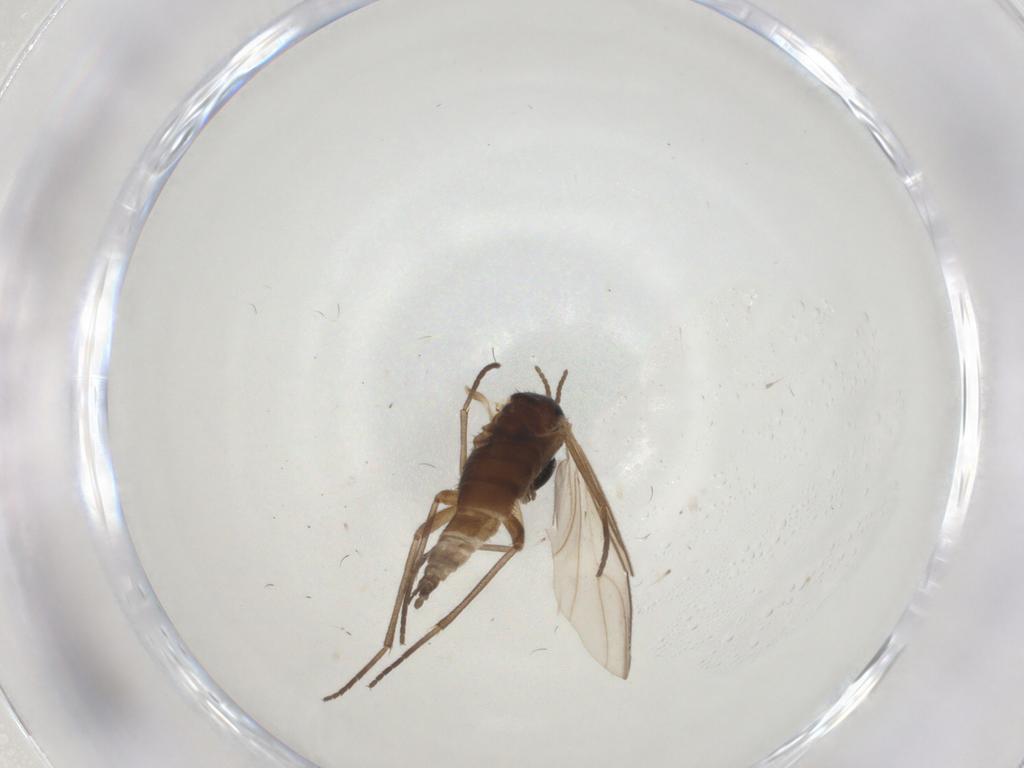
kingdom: Animalia
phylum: Arthropoda
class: Insecta
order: Diptera
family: Sciaridae
